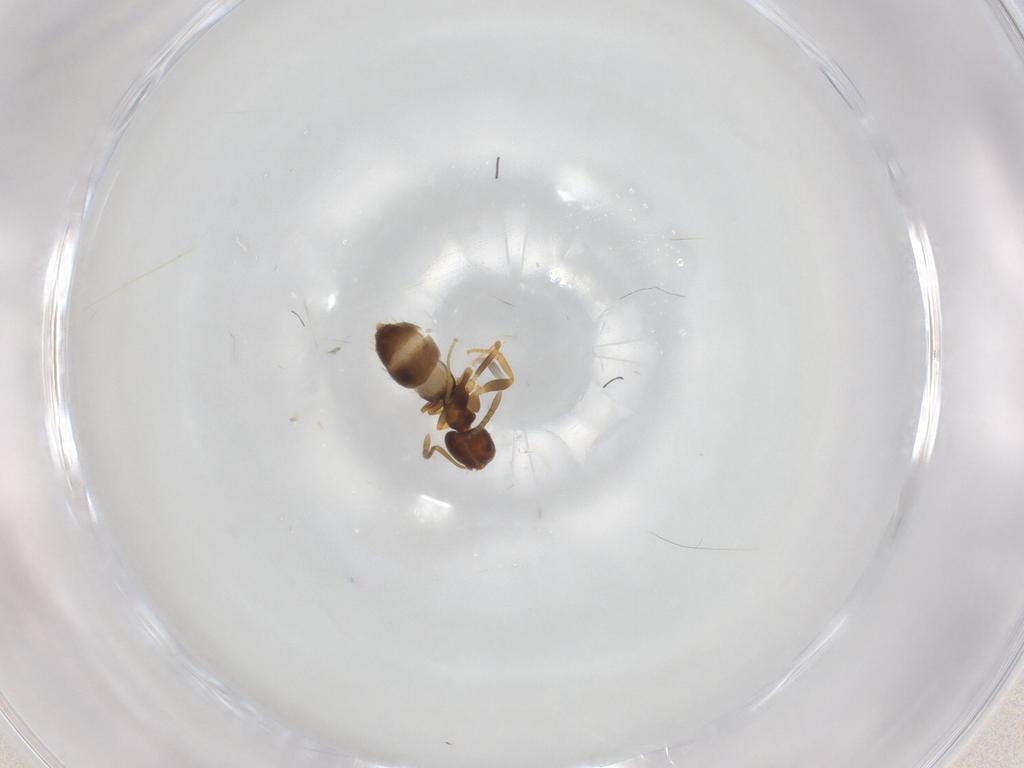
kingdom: Animalia
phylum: Arthropoda
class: Insecta
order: Hymenoptera
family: Formicidae
